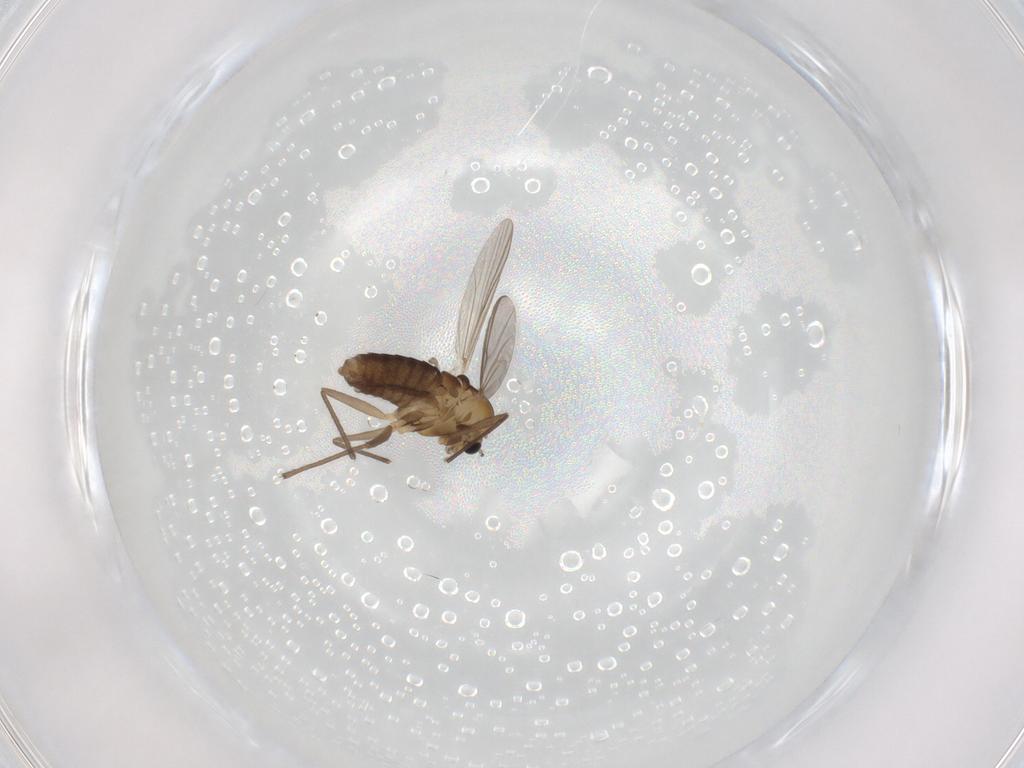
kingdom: Animalia
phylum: Arthropoda
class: Insecta
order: Diptera
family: Chironomidae
